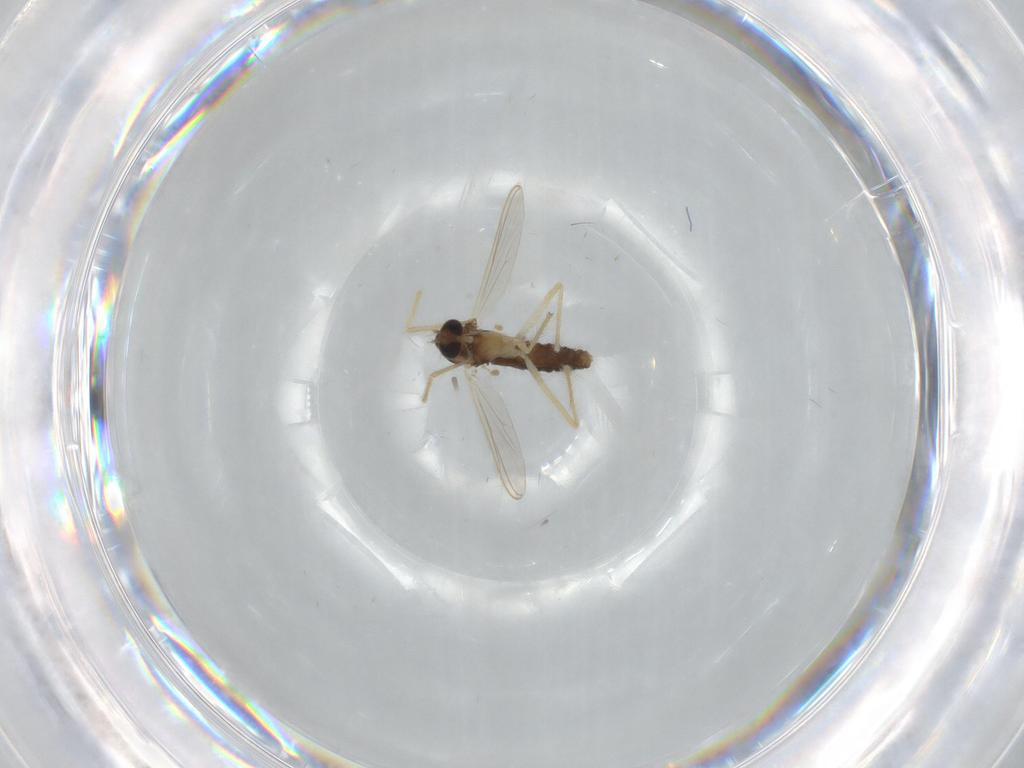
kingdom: Animalia
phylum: Arthropoda
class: Insecta
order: Diptera
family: Chironomidae
